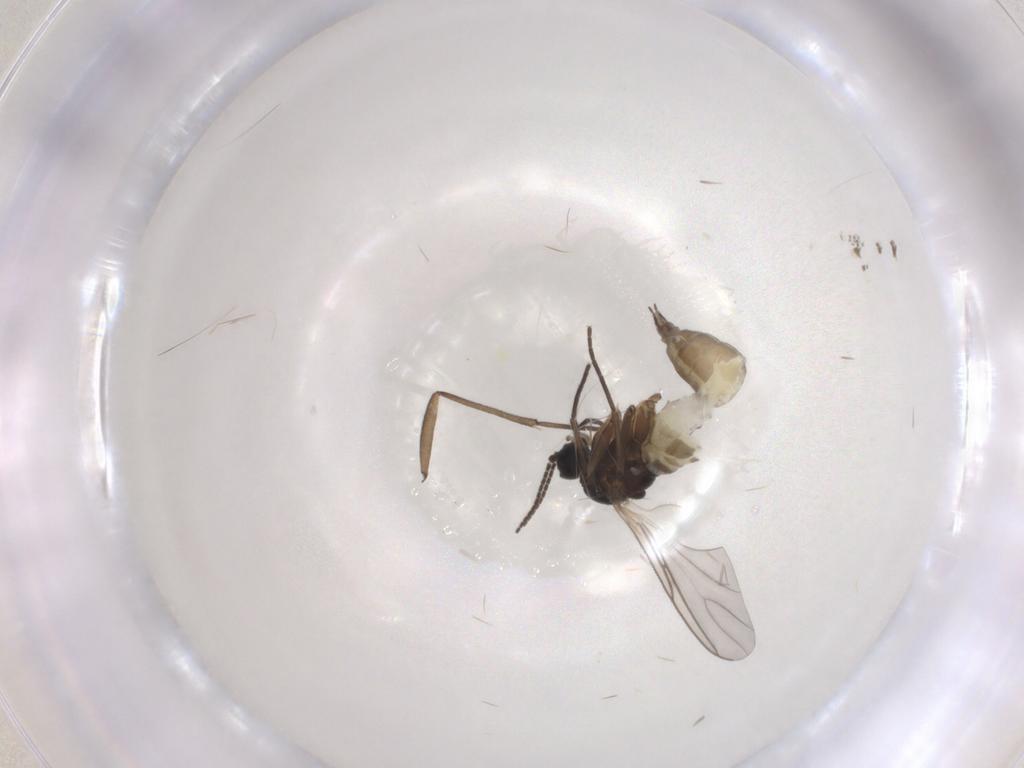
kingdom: Animalia
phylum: Arthropoda
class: Insecta
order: Diptera
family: Sciaridae
